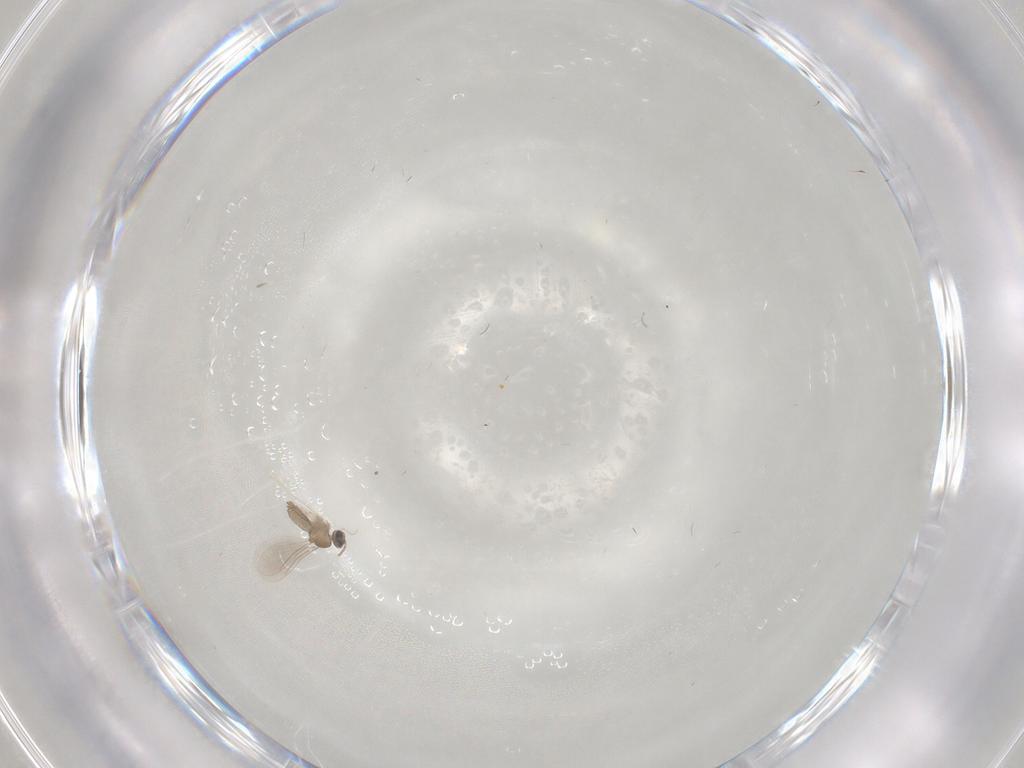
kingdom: Animalia
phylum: Arthropoda
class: Insecta
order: Diptera
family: Cecidomyiidae
